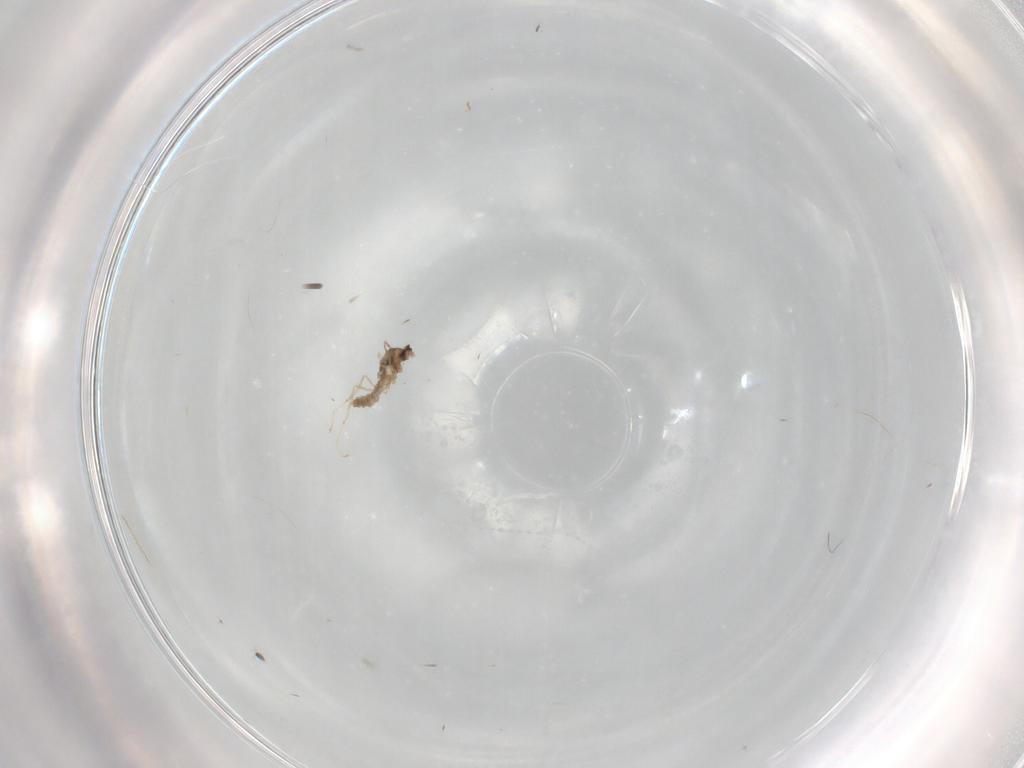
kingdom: Animalia
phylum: Arthropoda
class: Insecta
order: Diptera
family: Cecidomyiidae
